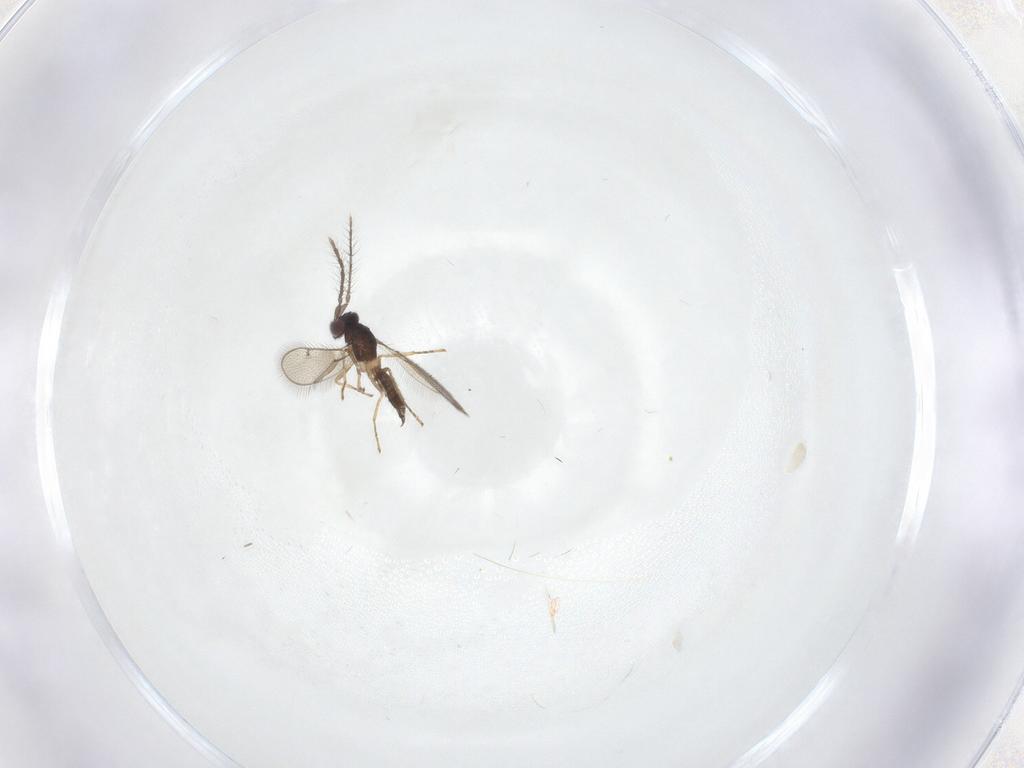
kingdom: Animalia
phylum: Arthropoda
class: Insecta
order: Hymenoptera
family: Eulophidae
